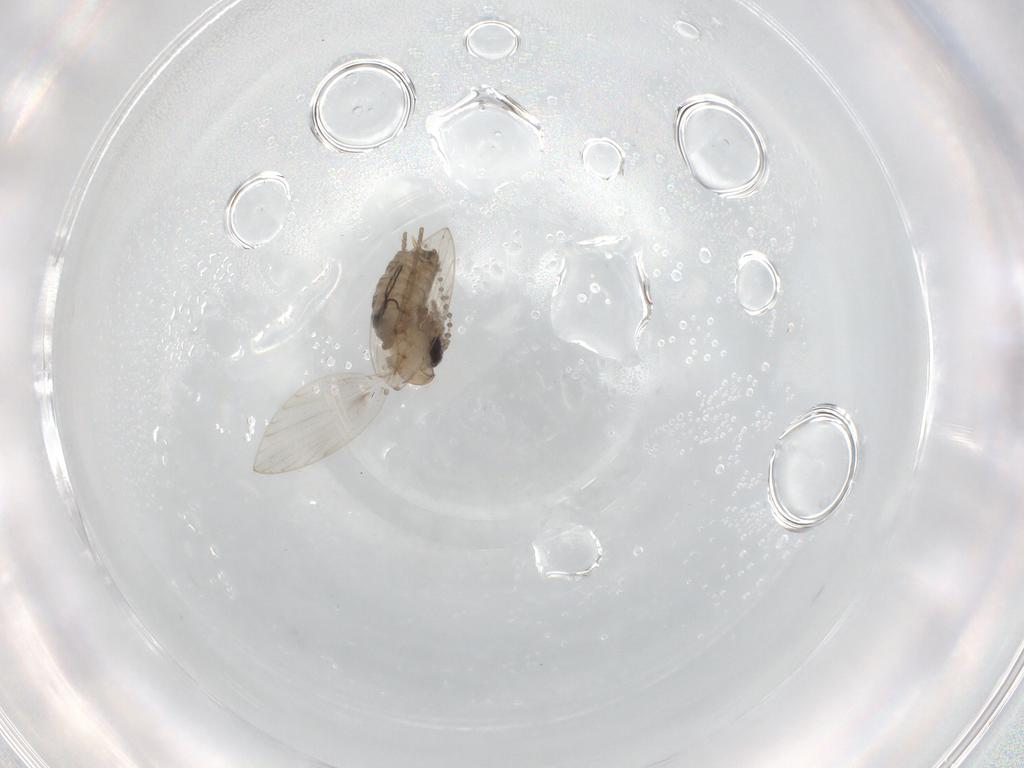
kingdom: Animalia
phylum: Arthropoda
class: Insecta
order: Diptera
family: Psychodidae
